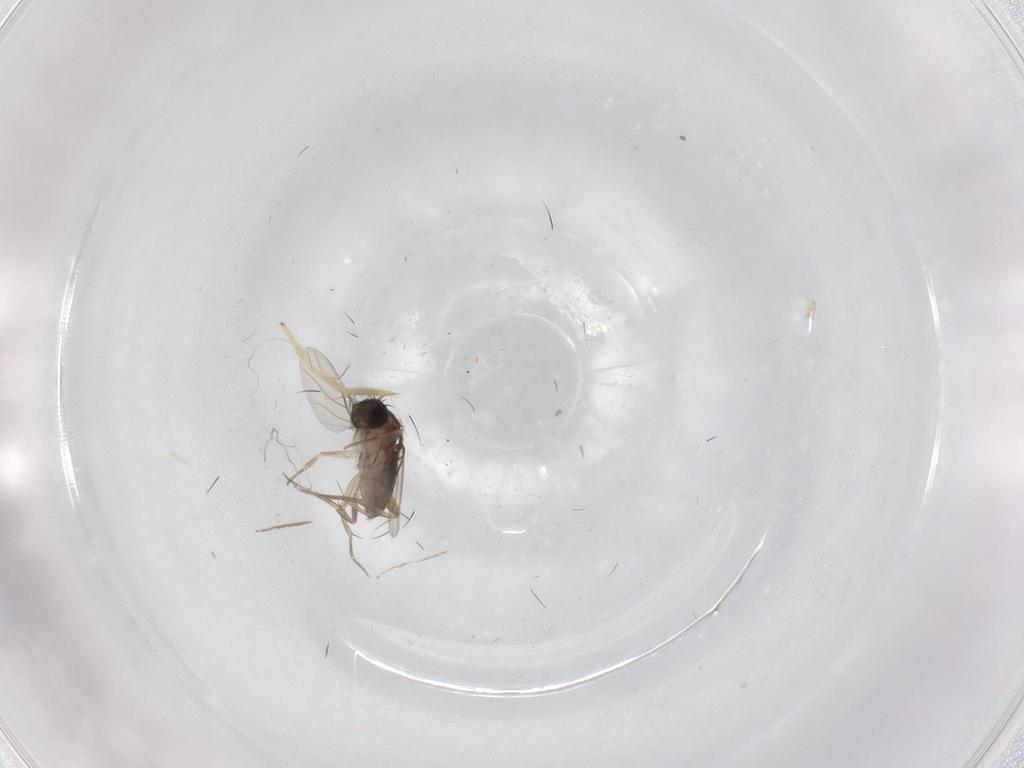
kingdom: Animalia
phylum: Arthropoda
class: Insecta
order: Diptera
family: Phoridae
